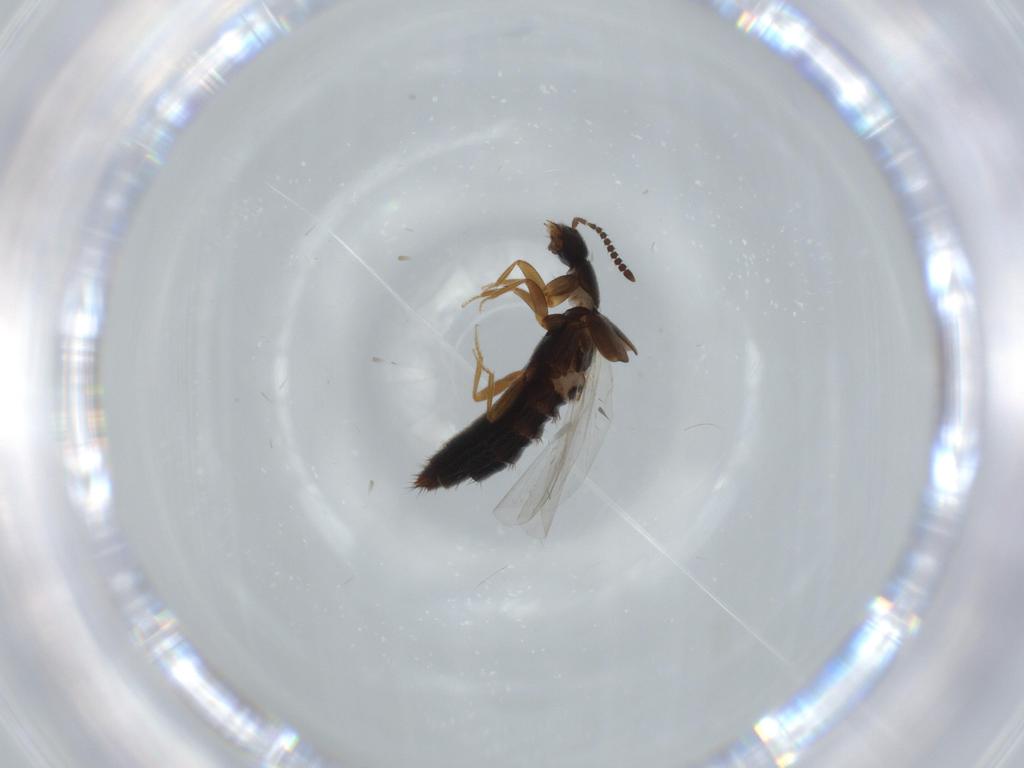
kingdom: Animalia
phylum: Arthropoda
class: Insecta
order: Coleoptera
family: Staphylinidae
